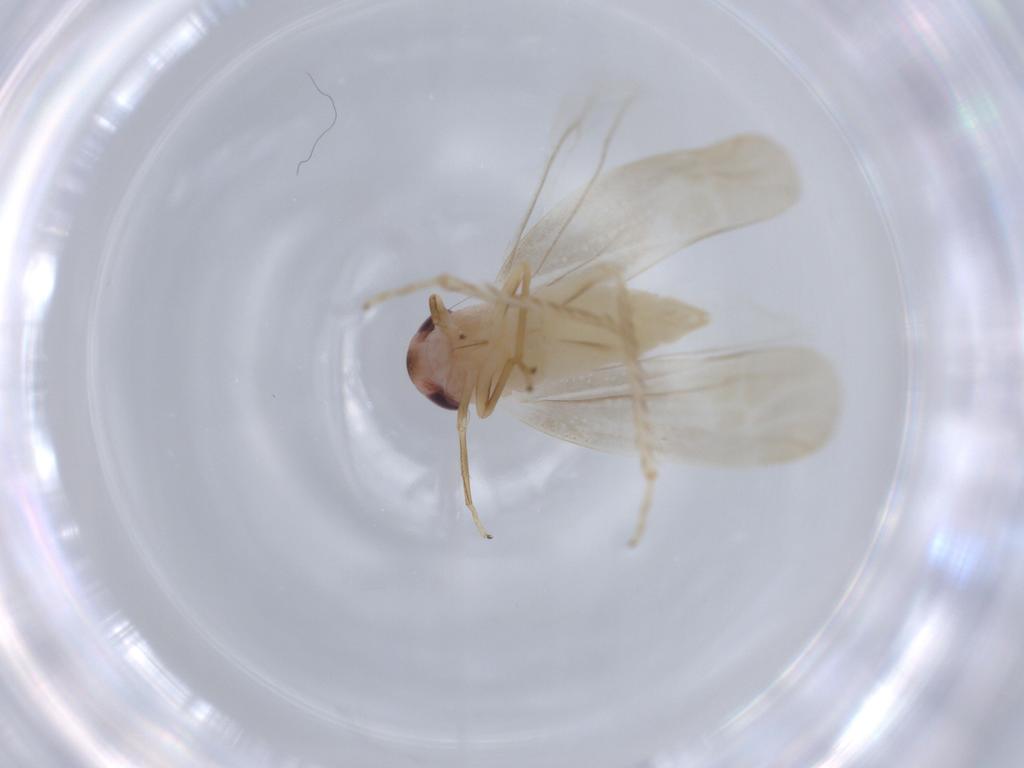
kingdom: Animalia
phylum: Arthropoda
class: Insecta
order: Hemiptera
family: Cicadellidae
